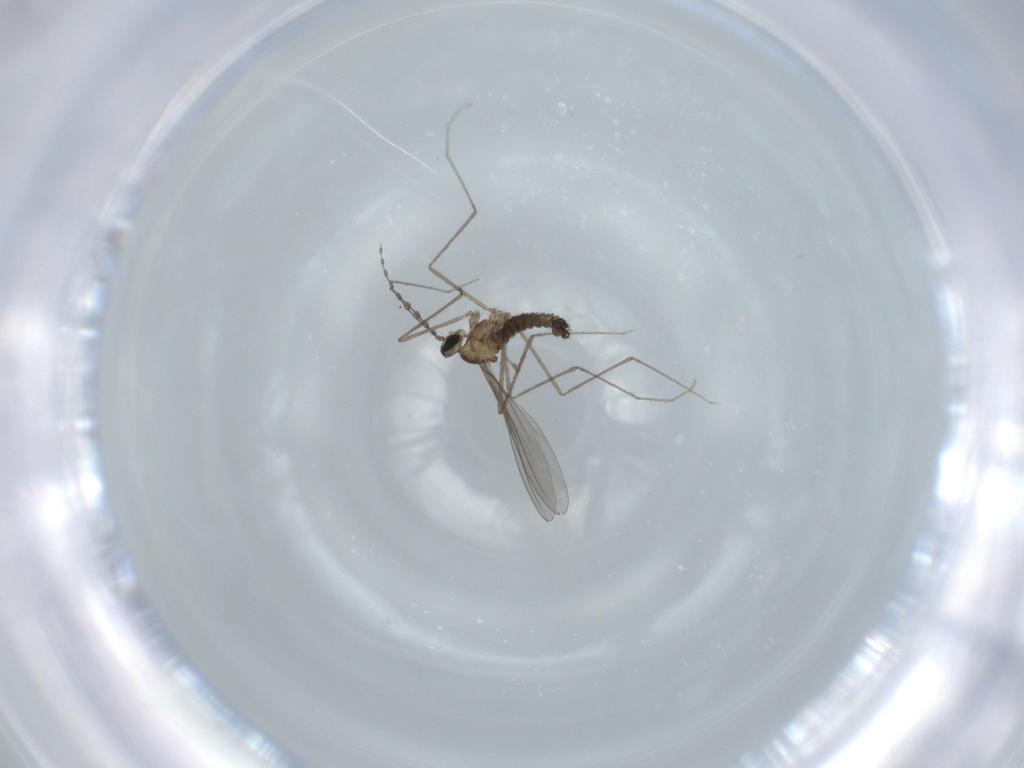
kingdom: Animalia
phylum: Arthropoda
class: Insecta
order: Diptera
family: Cecidomyiidae
